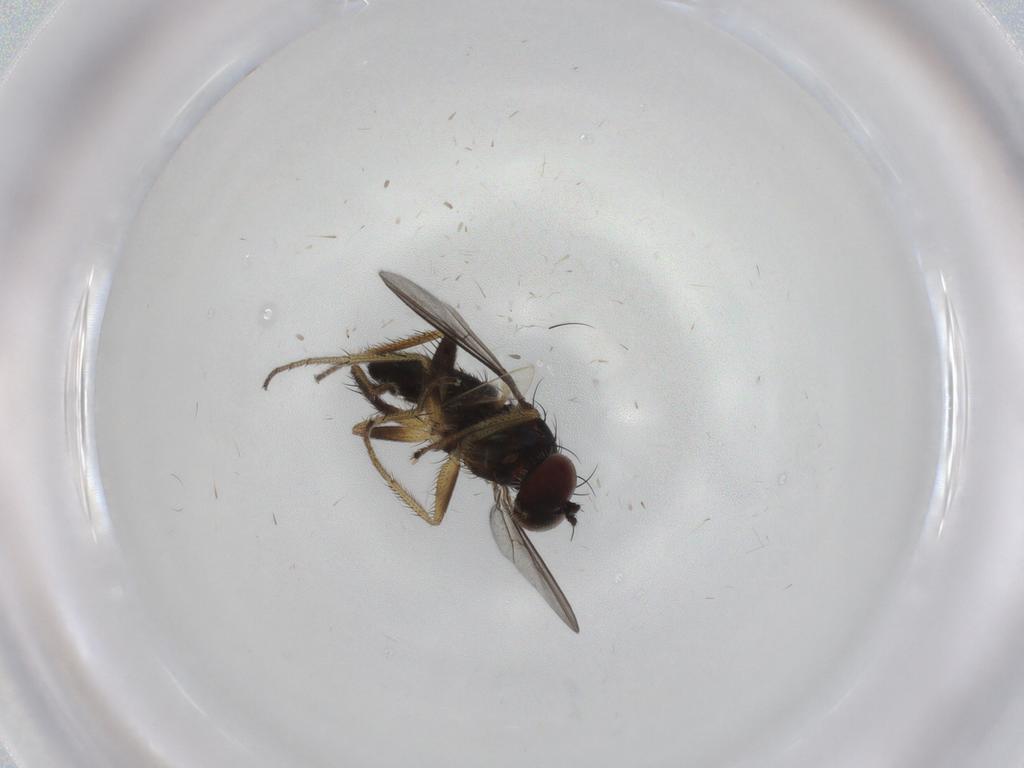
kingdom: Animalia
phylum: Arthropoda
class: Insecta
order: Diptera
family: Dolichopodidae
